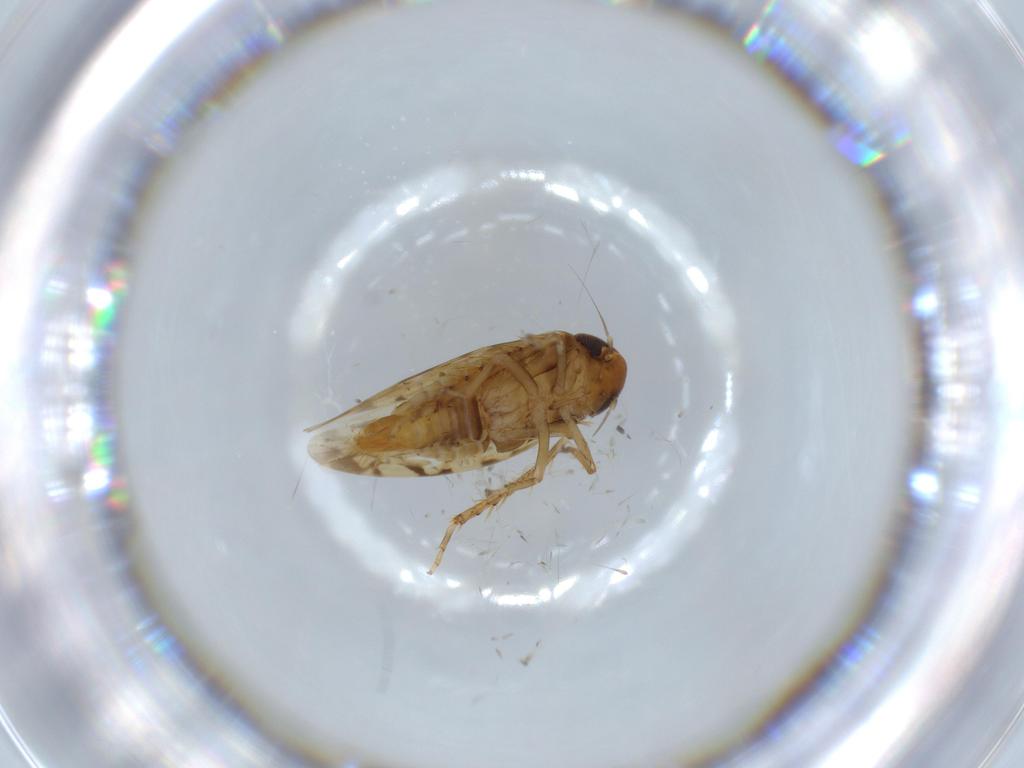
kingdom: Animalia
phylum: Arthropoda
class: Insecta
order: Hemiptera
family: Cicadellidae
